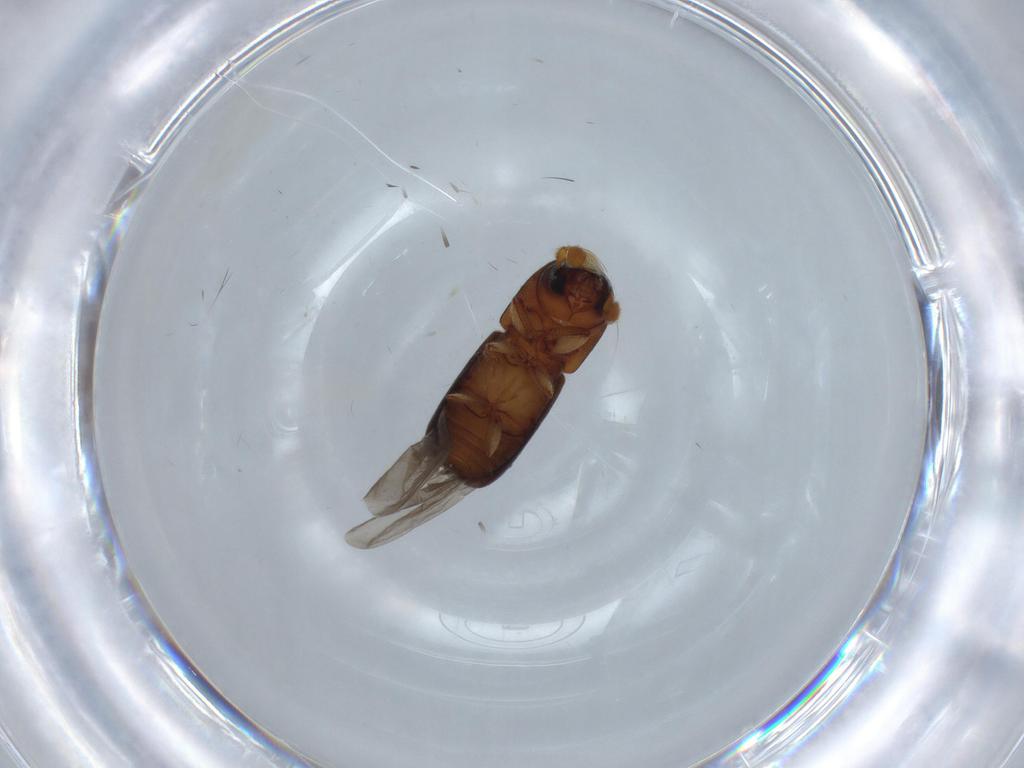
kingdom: Animalia
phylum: Arthropoda
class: Insecta
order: Coleoptera
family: Curculionidae
